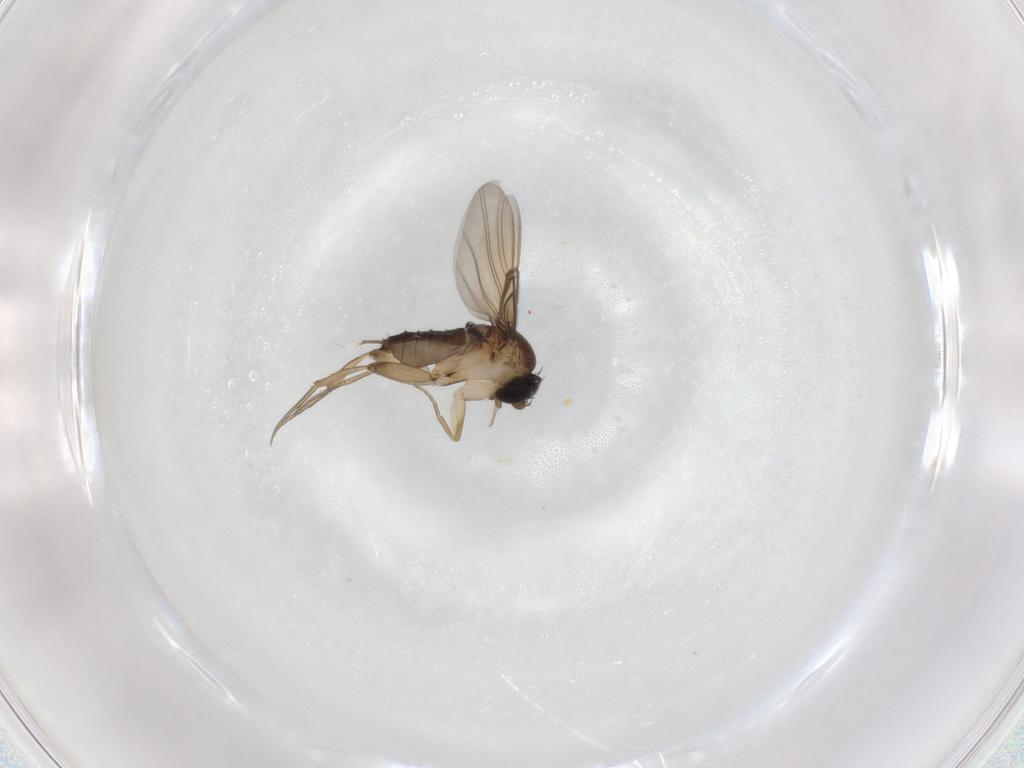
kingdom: Animalia
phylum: Arthropoda
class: Insecta
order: Diptera
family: Phoridae
